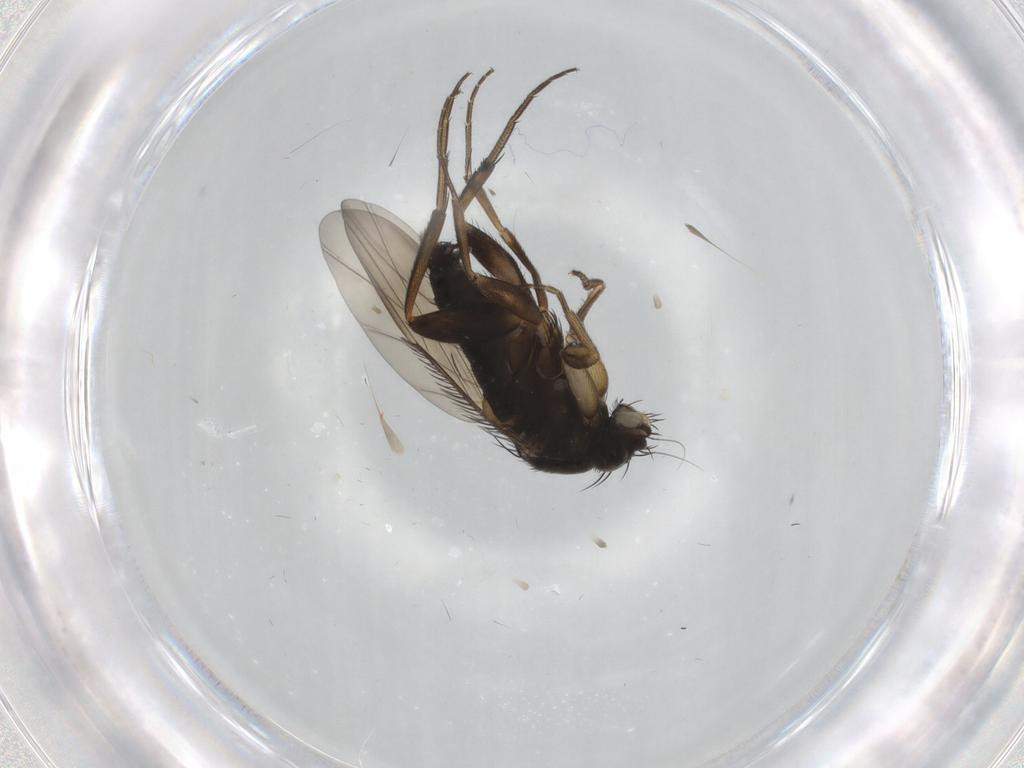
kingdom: Animalia
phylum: Arthropoda
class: Insecta
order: Diptera
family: Phoridae
